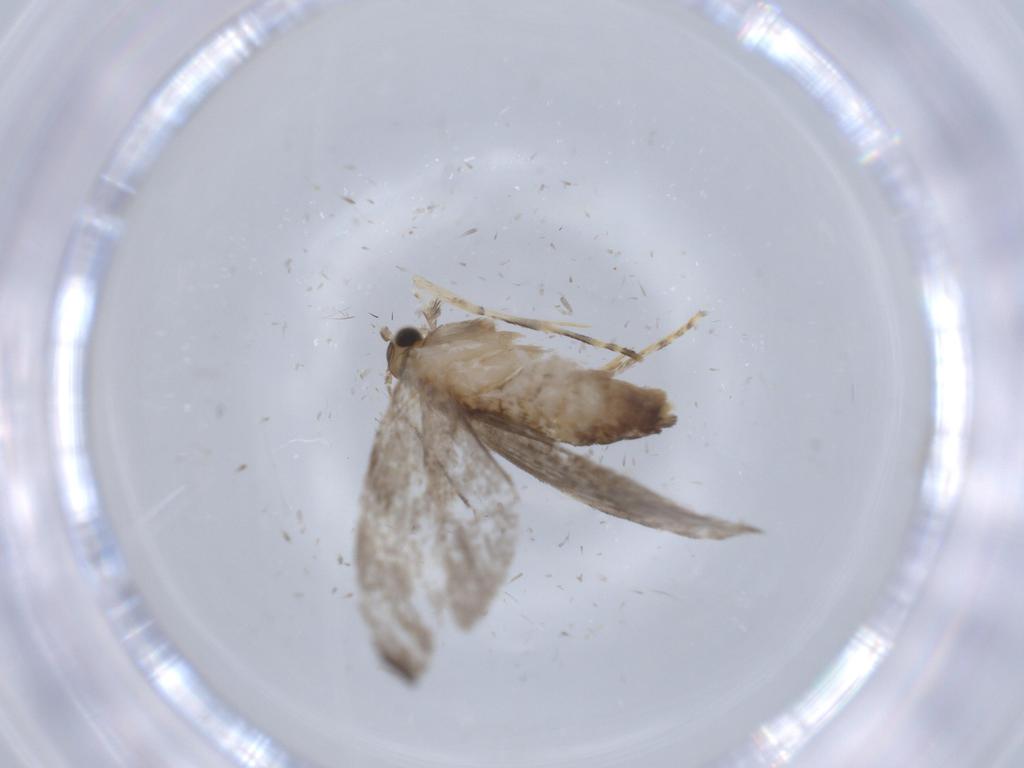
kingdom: Animalia
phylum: Arthropoda
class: Insecta
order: Lepidoptera
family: Tineidae
